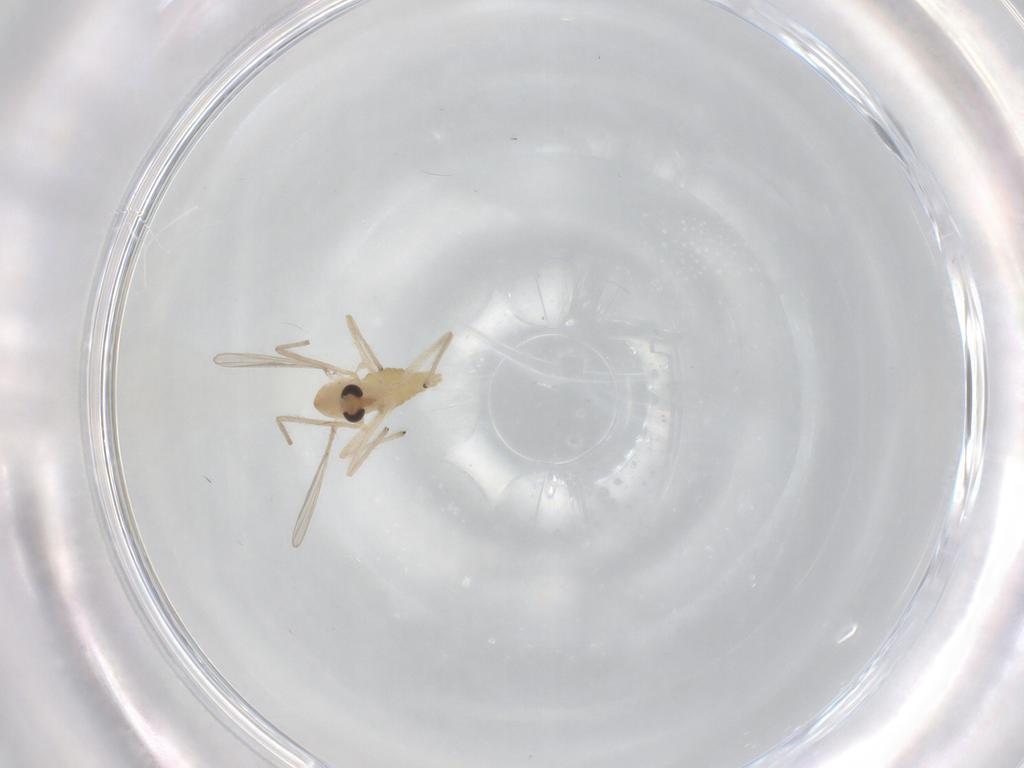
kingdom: Animalia
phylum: Arthropoda
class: Insecta
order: Diptera
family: Chironomidae
